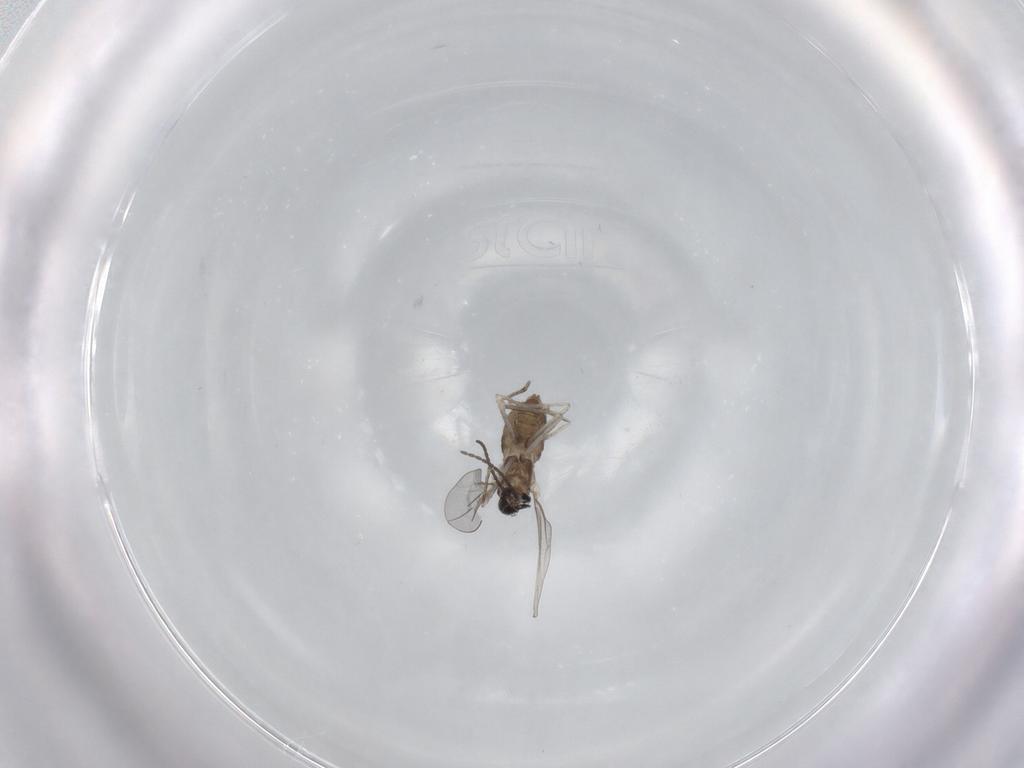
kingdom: Animalia
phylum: Arthropoda
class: Insecta
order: Diptera
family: Cecidomyiidae
